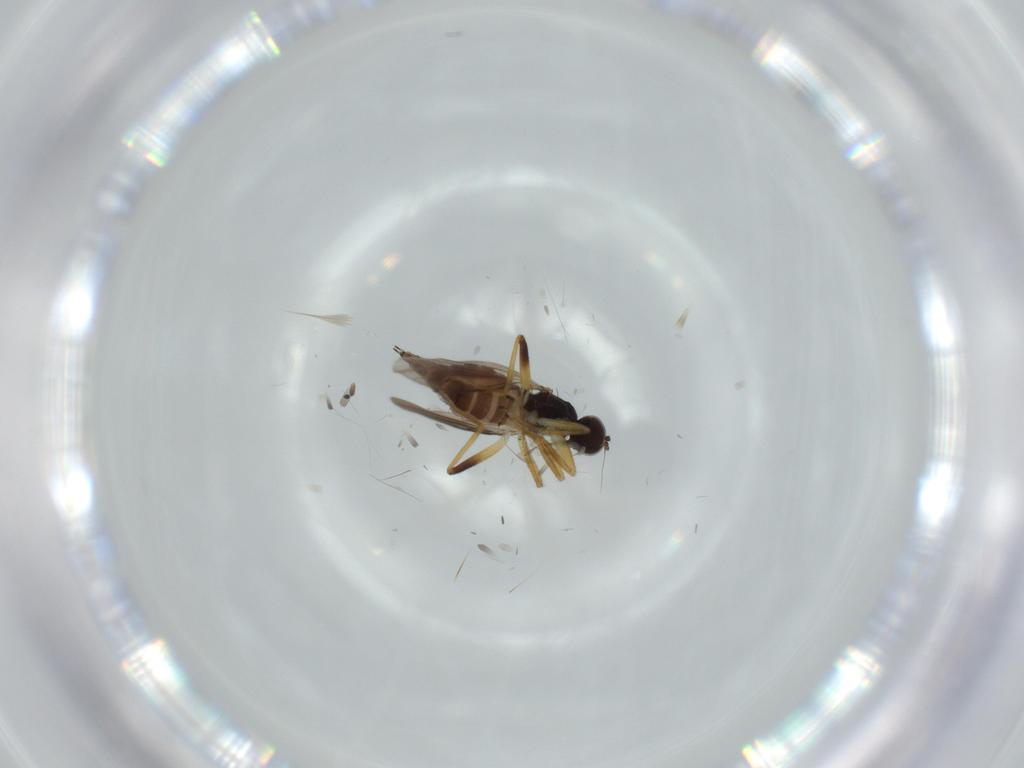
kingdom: Animalia
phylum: Arthropoda
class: Insecta
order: Diptera
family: Hybotidae
